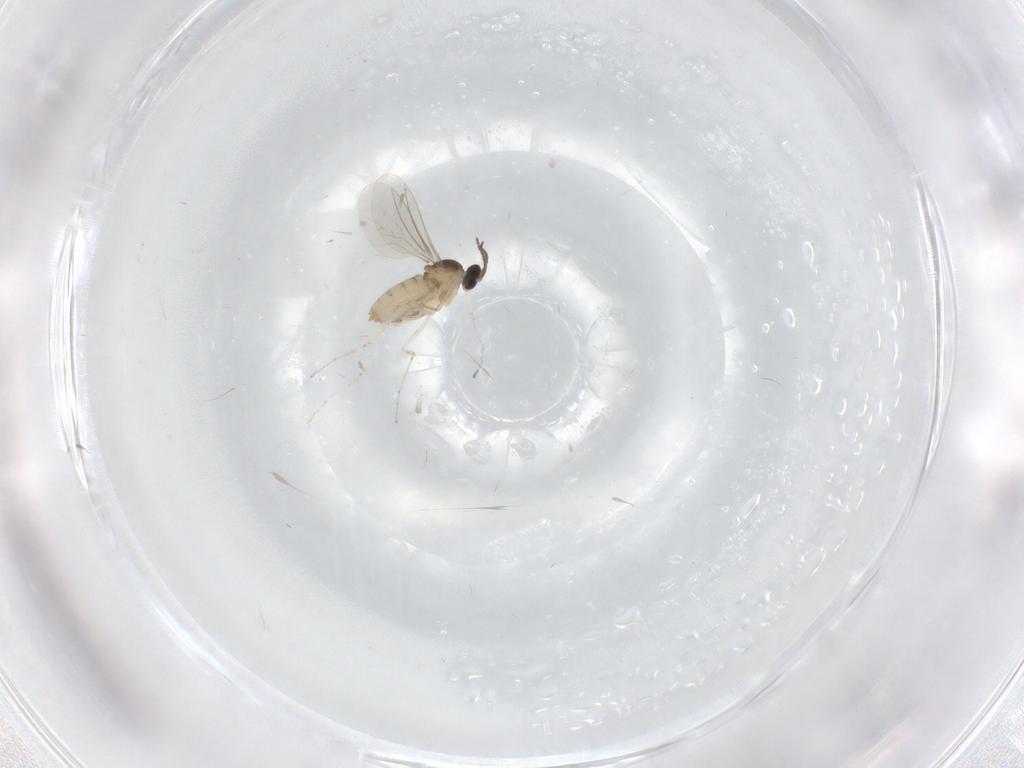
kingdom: Animalia
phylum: Arthropoda
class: Insecta
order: Diptera
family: Cecidomyiidae
